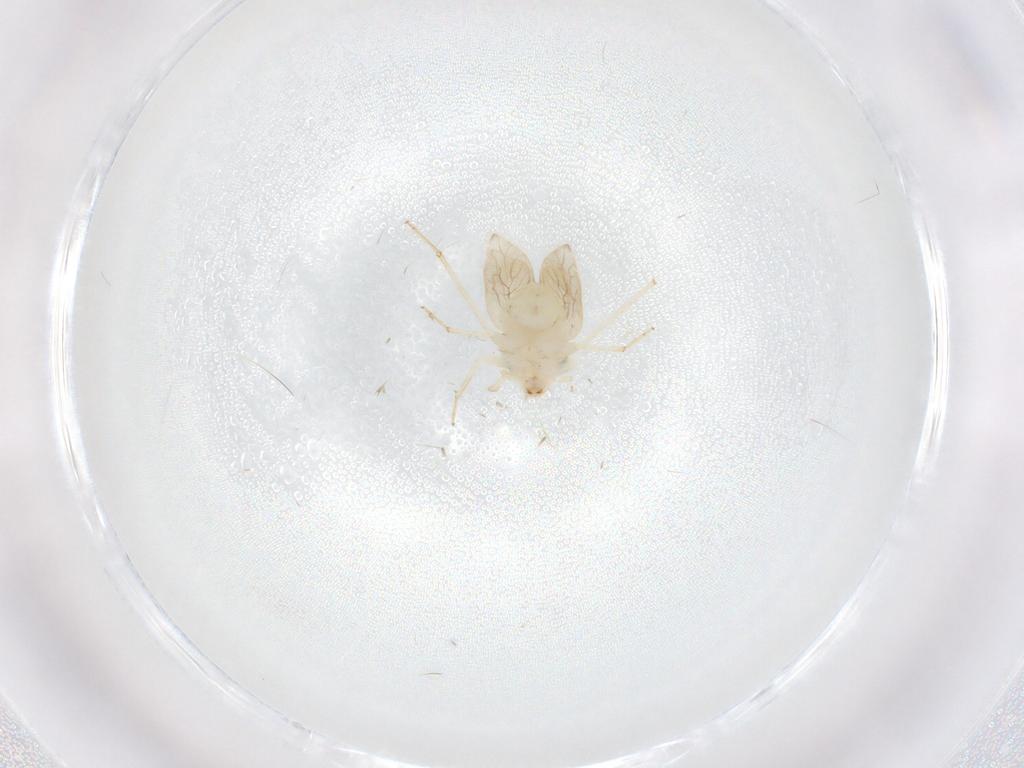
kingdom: Animalia
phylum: Arthropoda
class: Insecta
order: Psocodea
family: Lepidopsocidae
